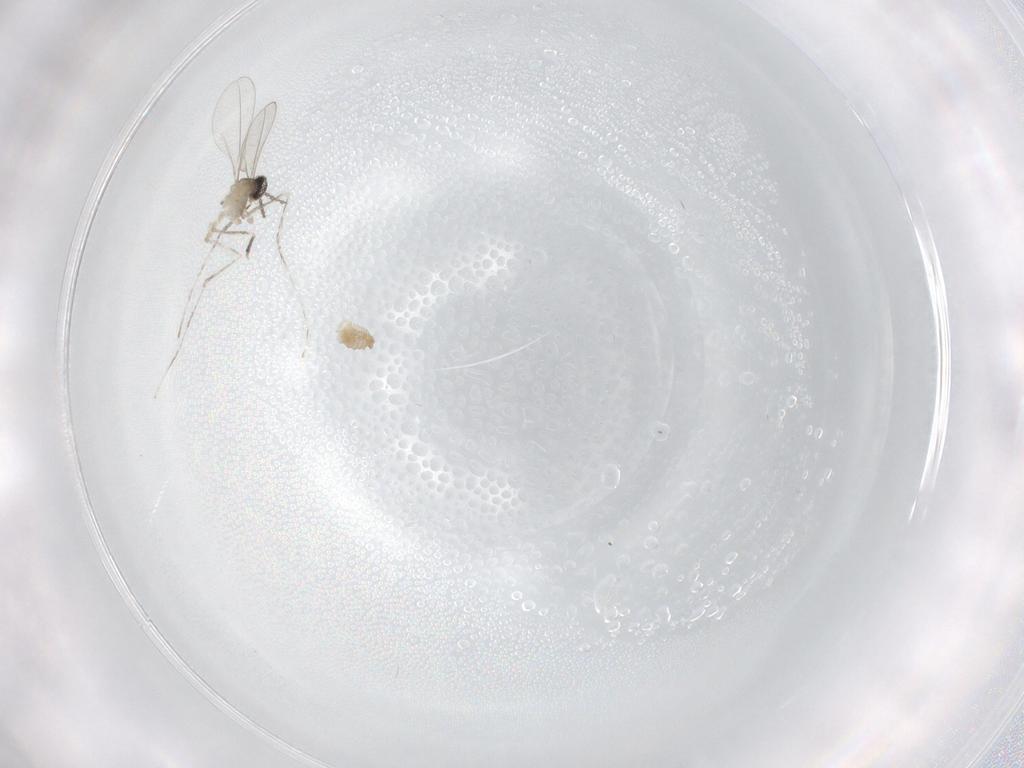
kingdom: Animalia
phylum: Arthropoda
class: Insecta
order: Diptera
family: Cecidomyiidae
